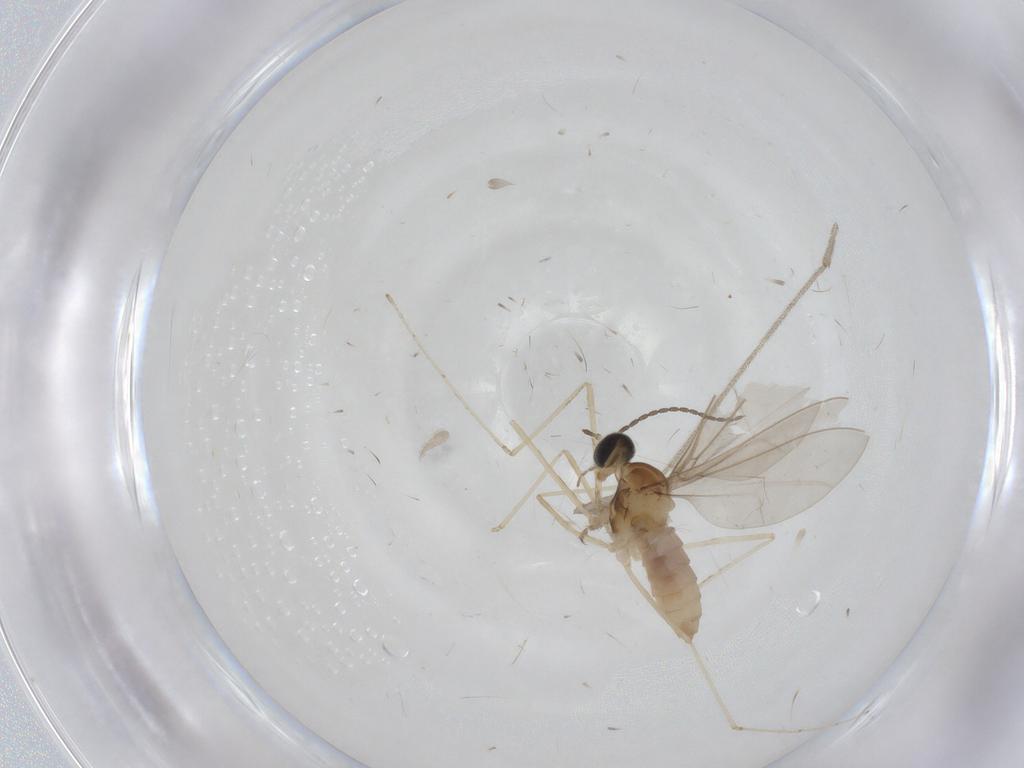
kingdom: Animalia
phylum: Arthropoda
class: Insecta
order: Diptera
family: Cecidomyiidae
